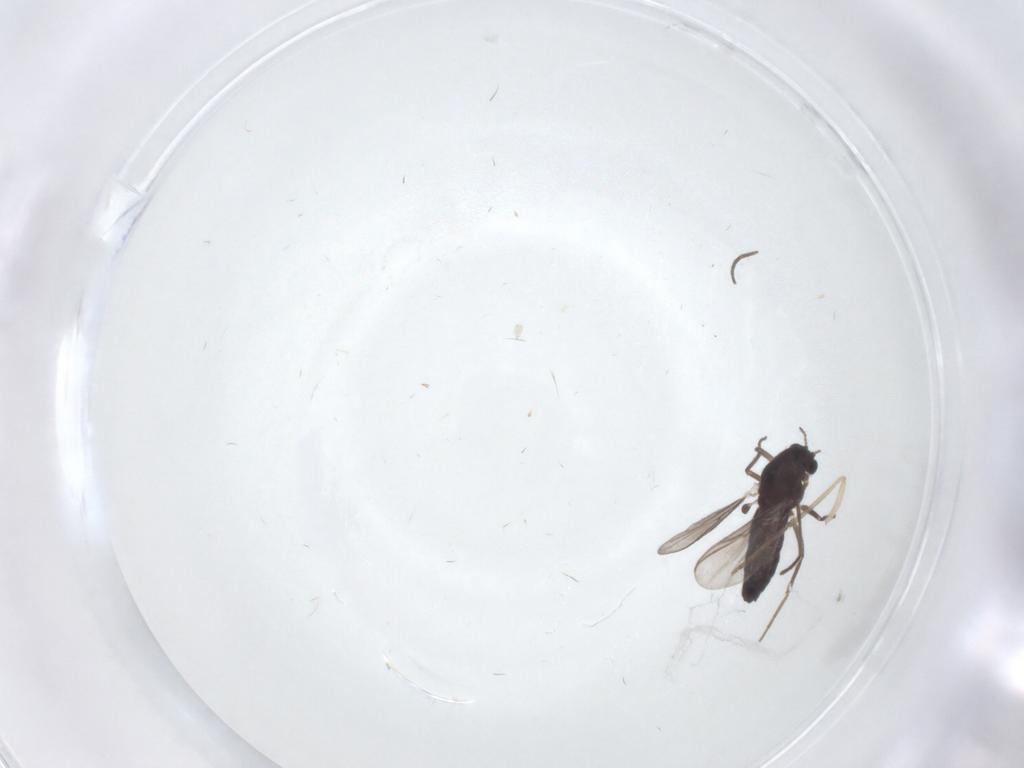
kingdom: Animalia
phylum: Arthropoda
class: Insecta
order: Diptera
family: Chironomidae
